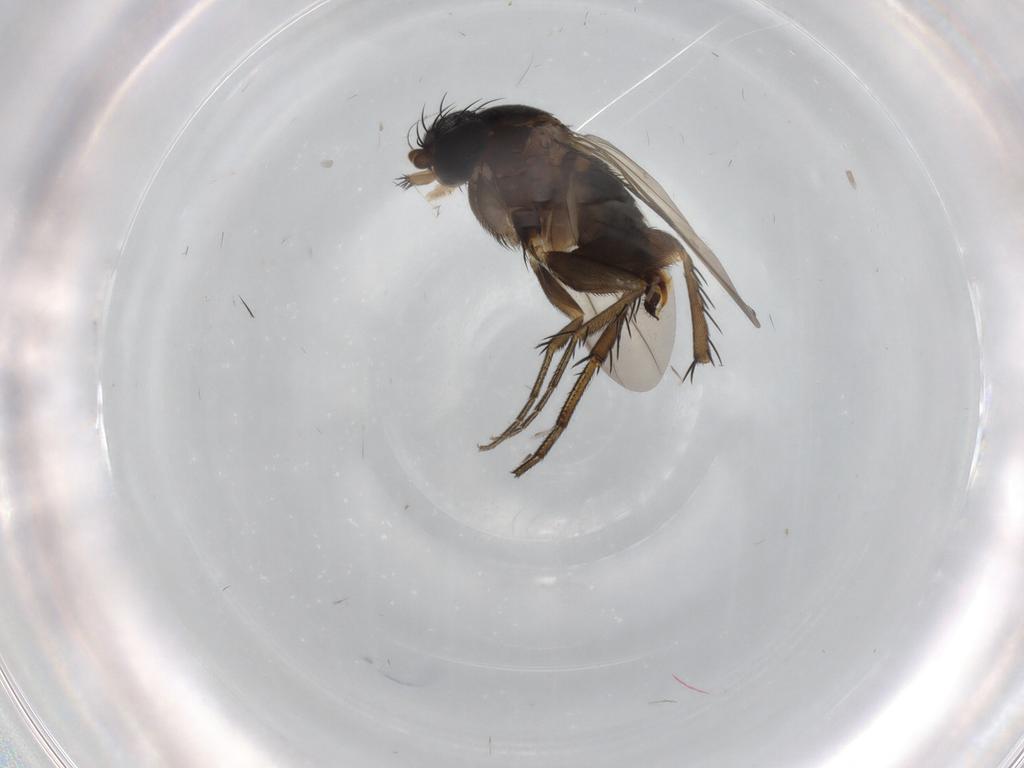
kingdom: Animalia
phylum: Arthropoda
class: Insecta
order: Diptera
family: Phoridae
